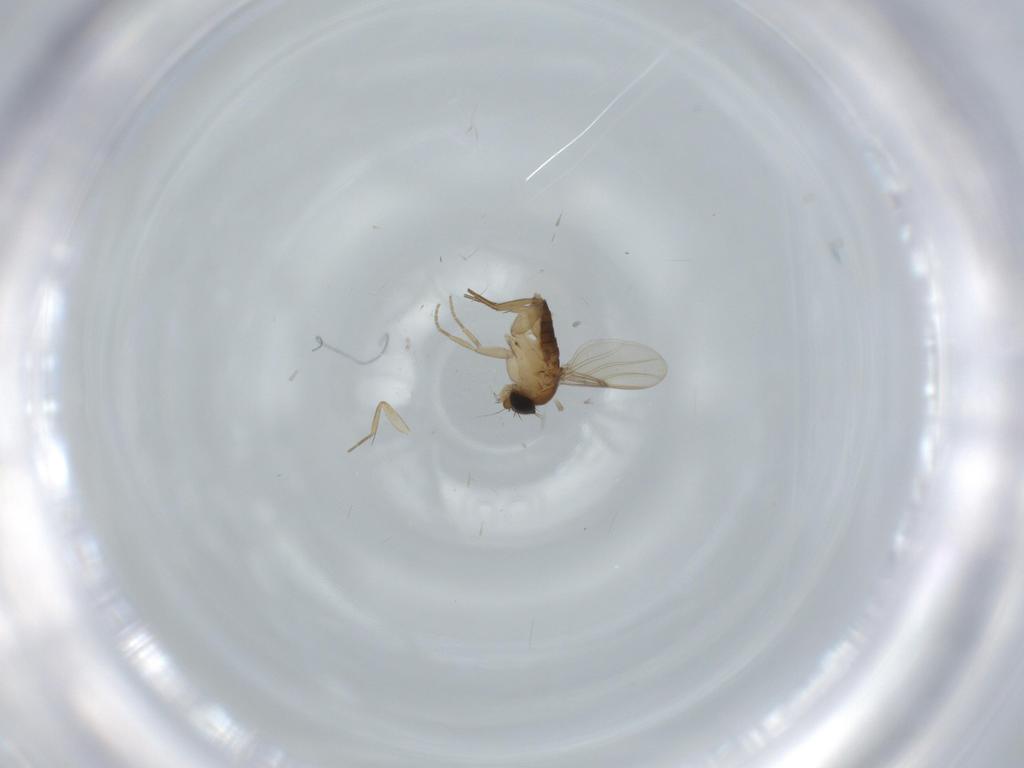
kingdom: Animalia
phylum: Arthropoda
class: Insecta
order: Diptera
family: Phoridae
